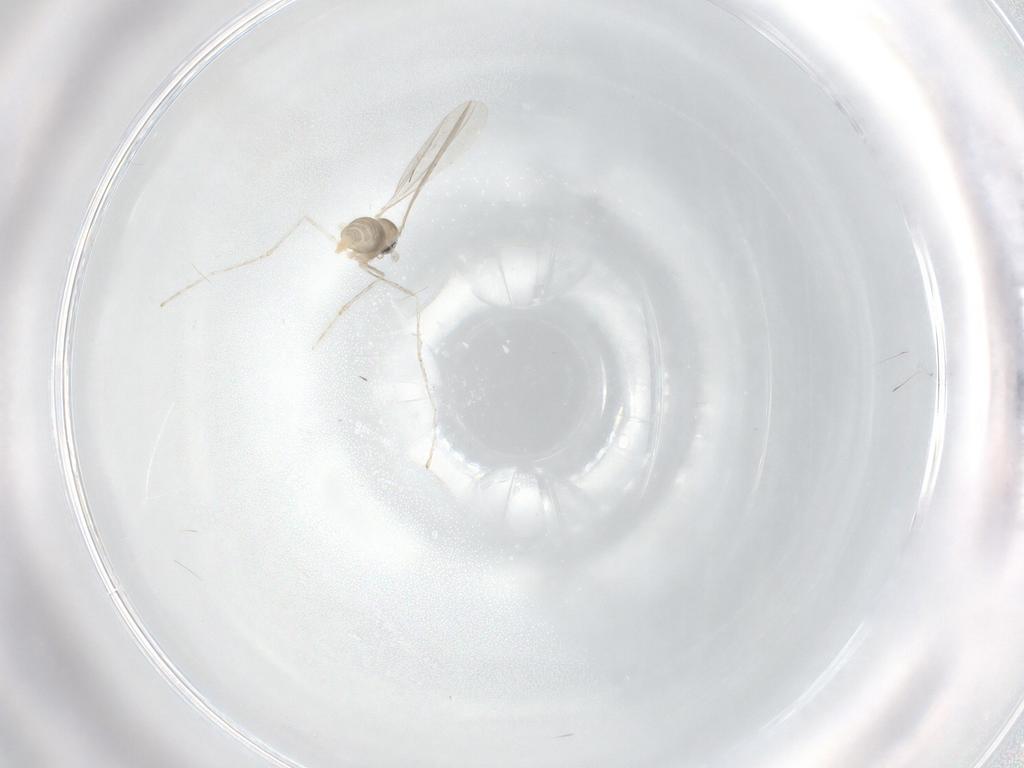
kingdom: Animalia
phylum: Arthropoda
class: Insecta
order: Diptera
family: Cecidomyiidae
